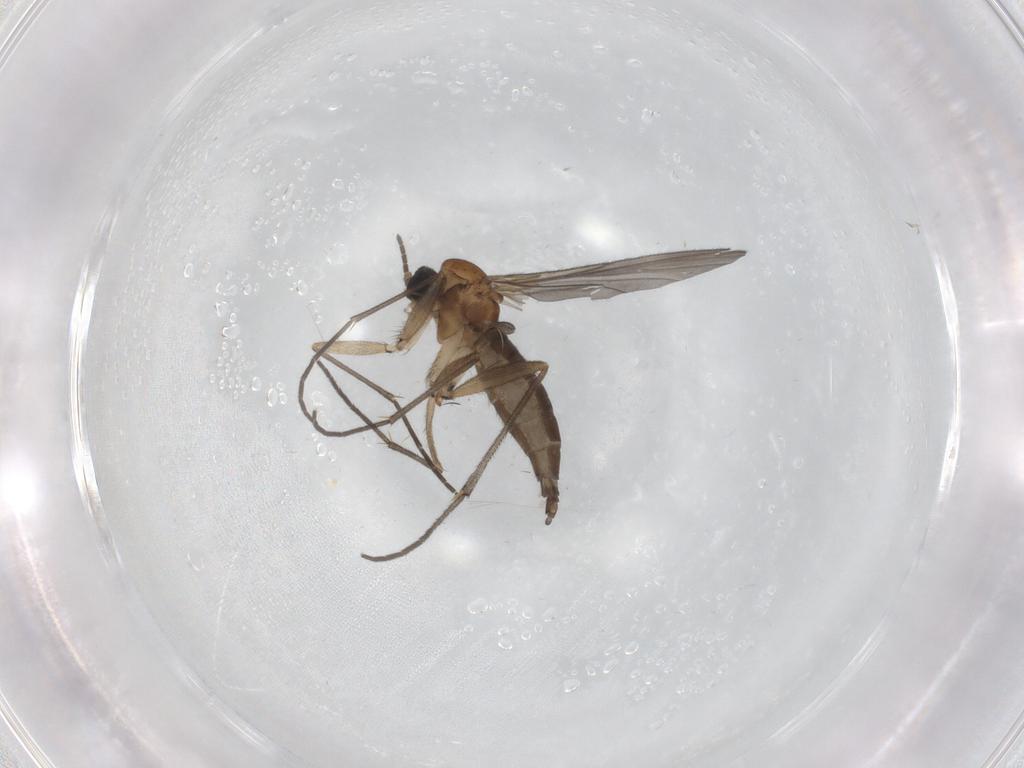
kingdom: Animalia
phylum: Arthropoda
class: Insecta
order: Diptera
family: Sciaridae
